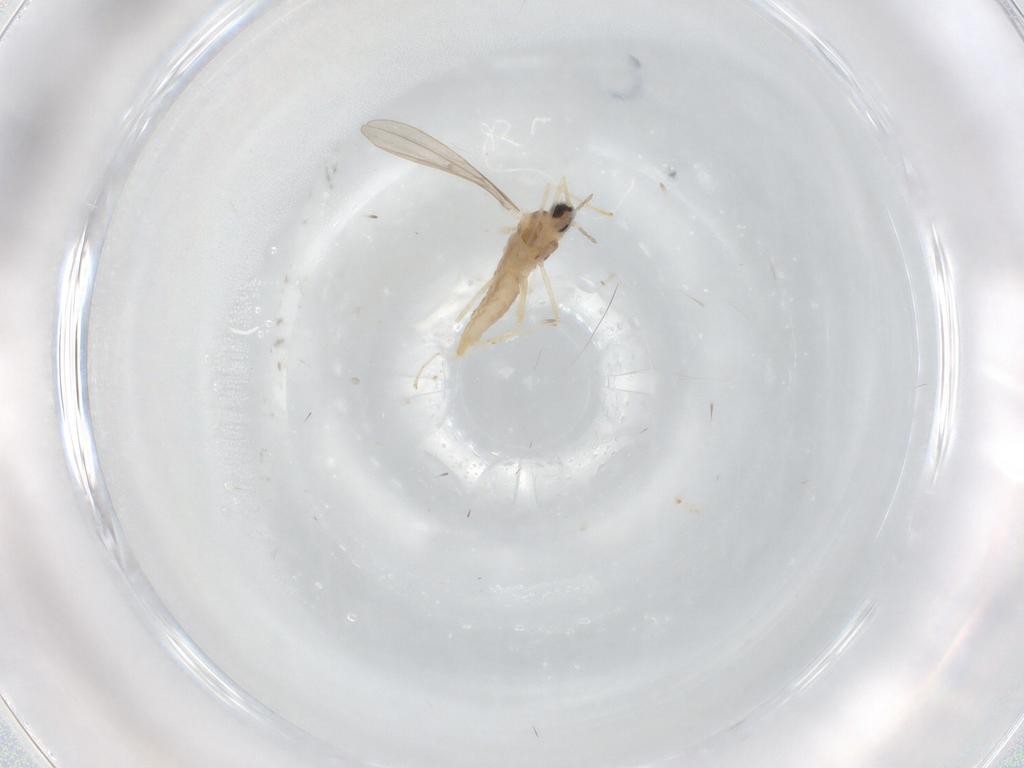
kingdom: Animalia
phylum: Arthropoda
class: Insecta
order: Diptera
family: Cecidomyiidae
